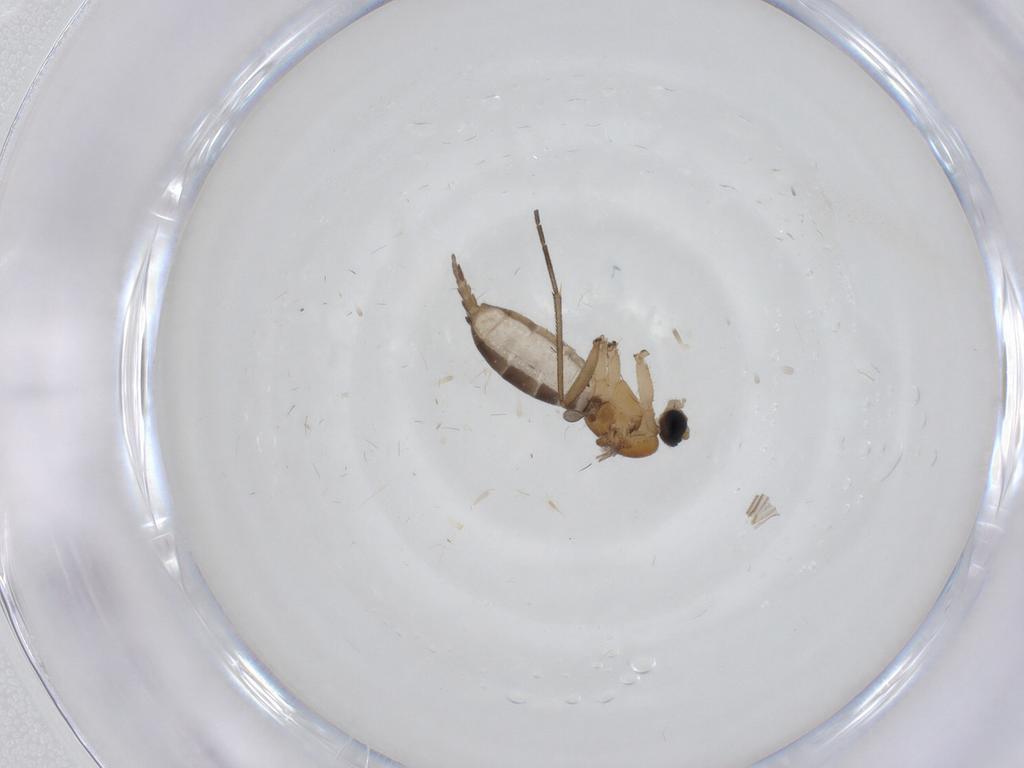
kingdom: Animalia
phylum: Arthropoda
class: Insecta
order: Diptera
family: Sciaridae
